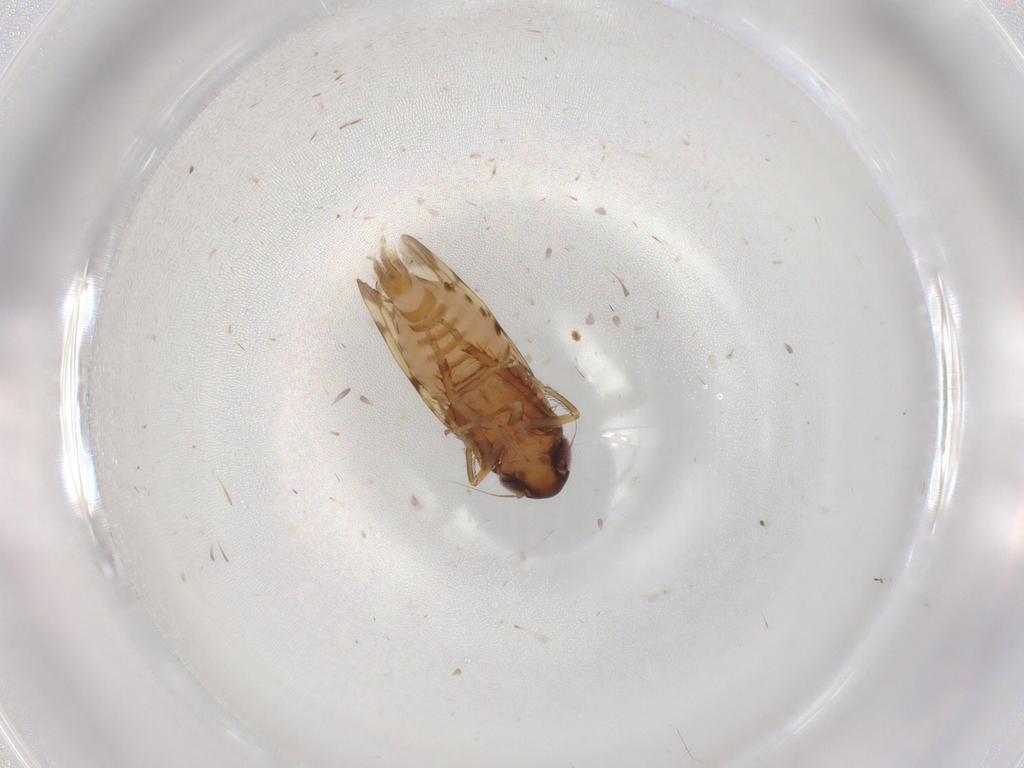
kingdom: Animalia
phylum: Arthropoda
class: Insecta
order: Hemiptera
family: Cicadellidae
